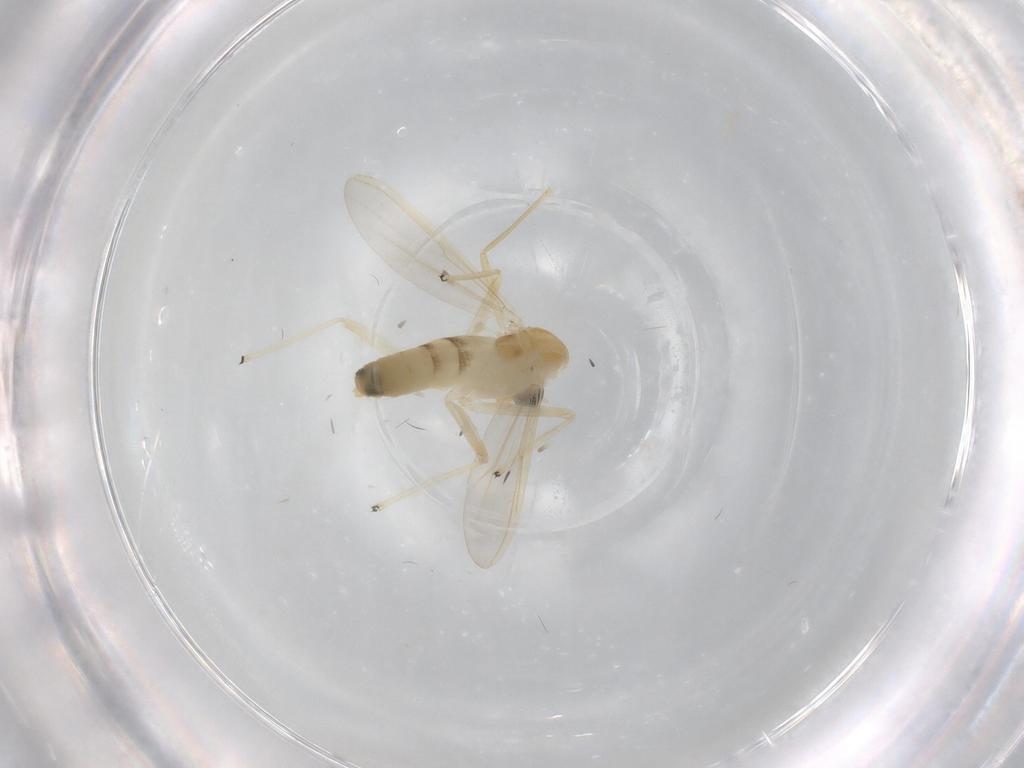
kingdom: Animalia
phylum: Arthropoda
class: Insecta
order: Diptera
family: Chironomidae
